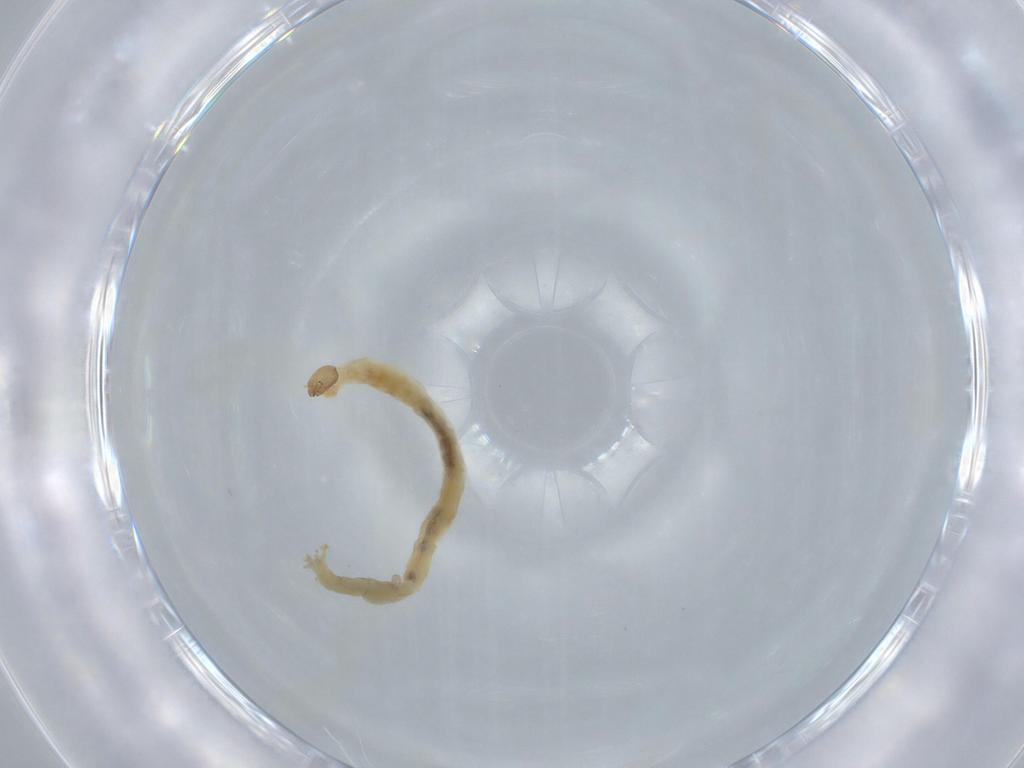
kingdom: Animalia
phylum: Arthropoda
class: Insecta
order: Diptera
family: Chironomidae
